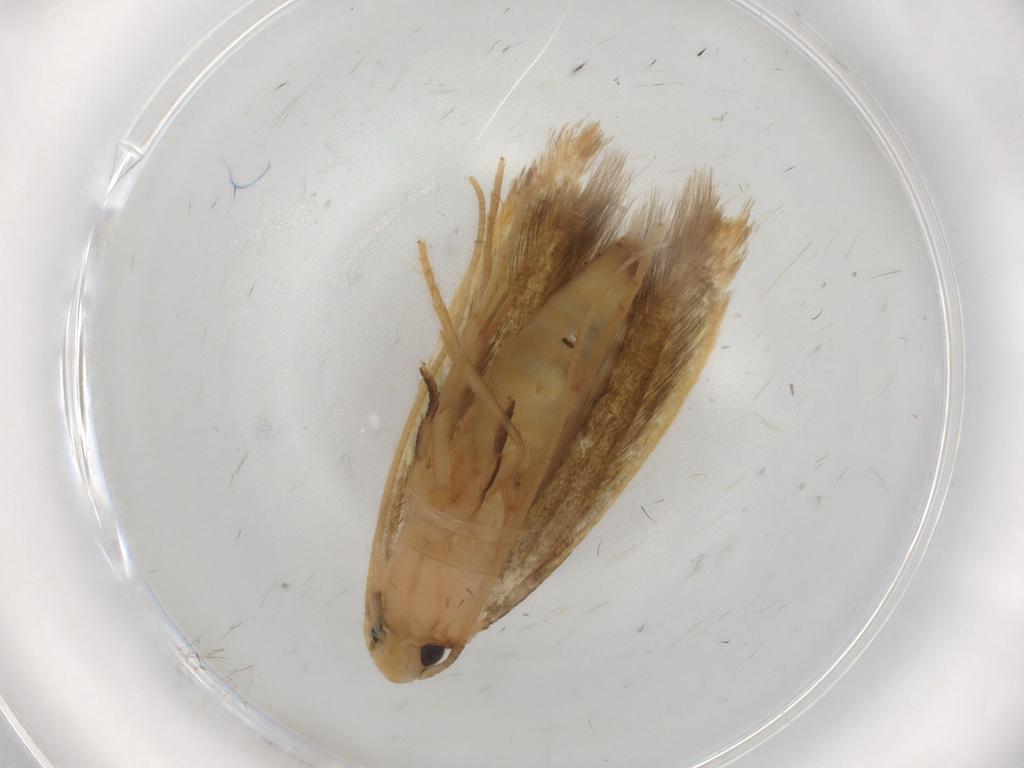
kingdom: Animalia
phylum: Arthropoda
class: Insecta
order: Lepidoptera
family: Tineidae
